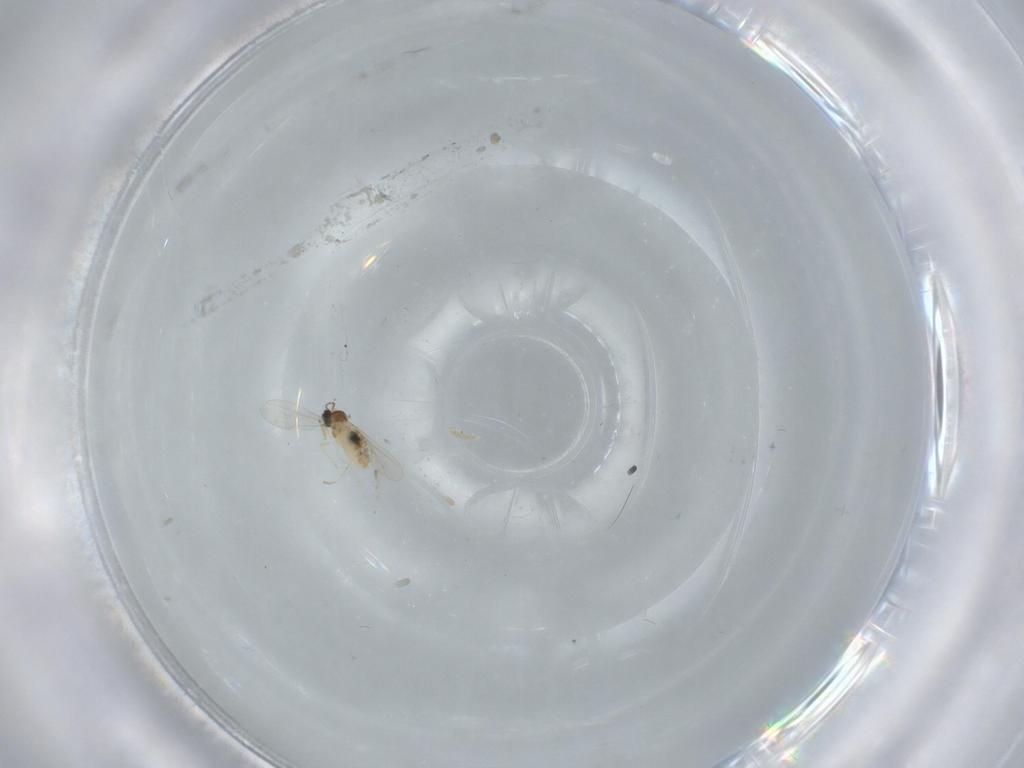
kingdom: Animalia
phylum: Arthropoda
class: Insecta
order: Diptera
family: Cecidomyiidae
